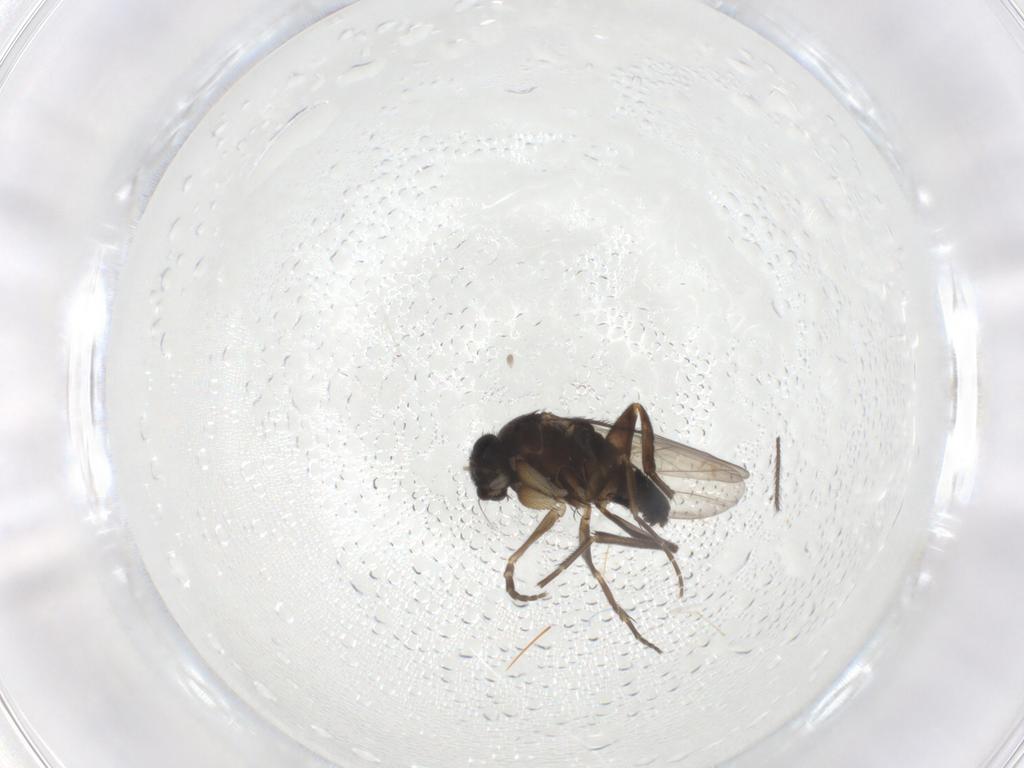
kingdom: Animalia
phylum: Arthropoda
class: Insecta
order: Diptera
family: Phoridae
